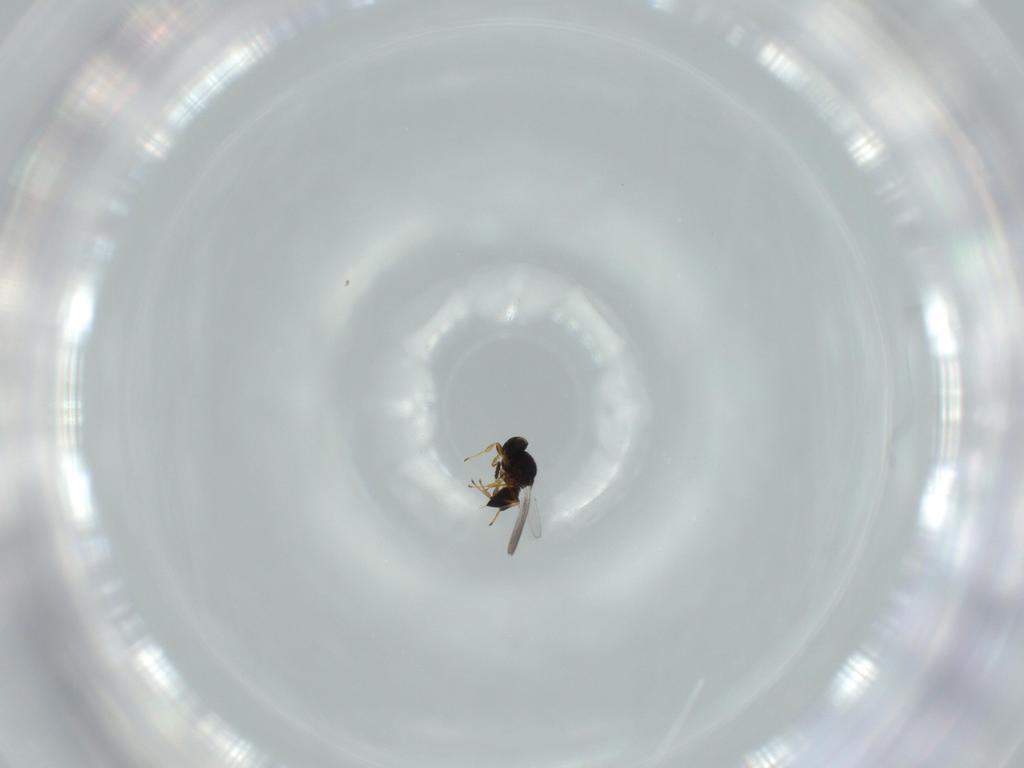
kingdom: Animalia
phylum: Arthropoda
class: Insecta
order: Hymenoptera
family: Platygastridae
